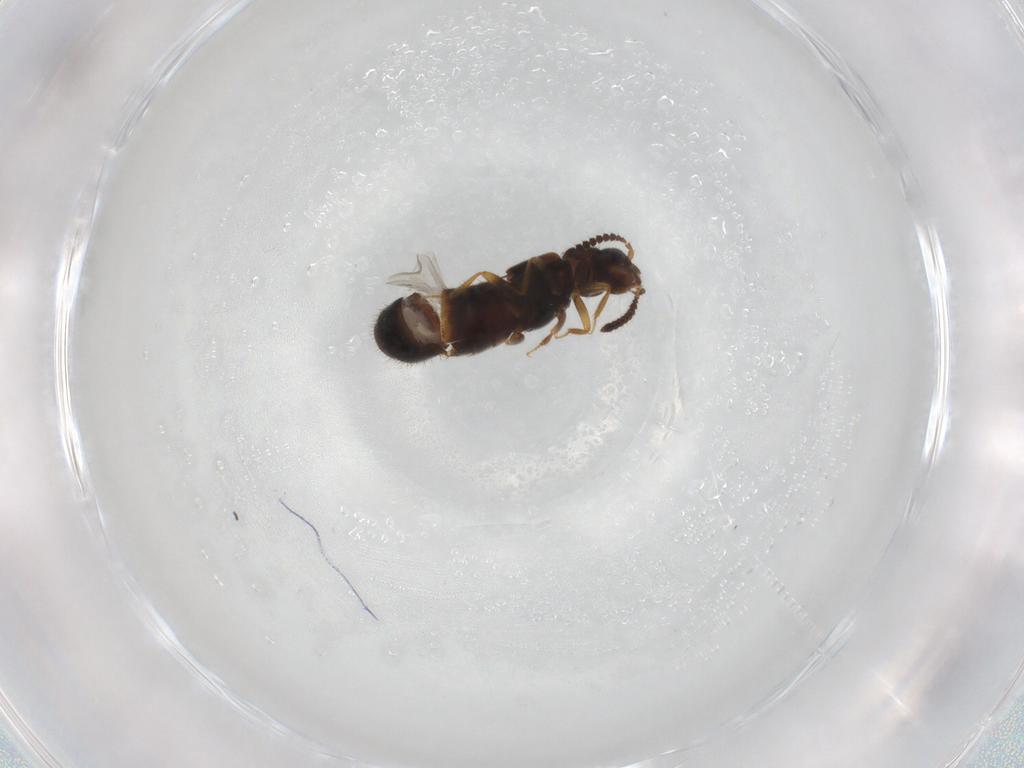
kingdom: Animalia
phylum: Arthropoda
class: Insecta
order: Coleoptera
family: Staphylinidae
